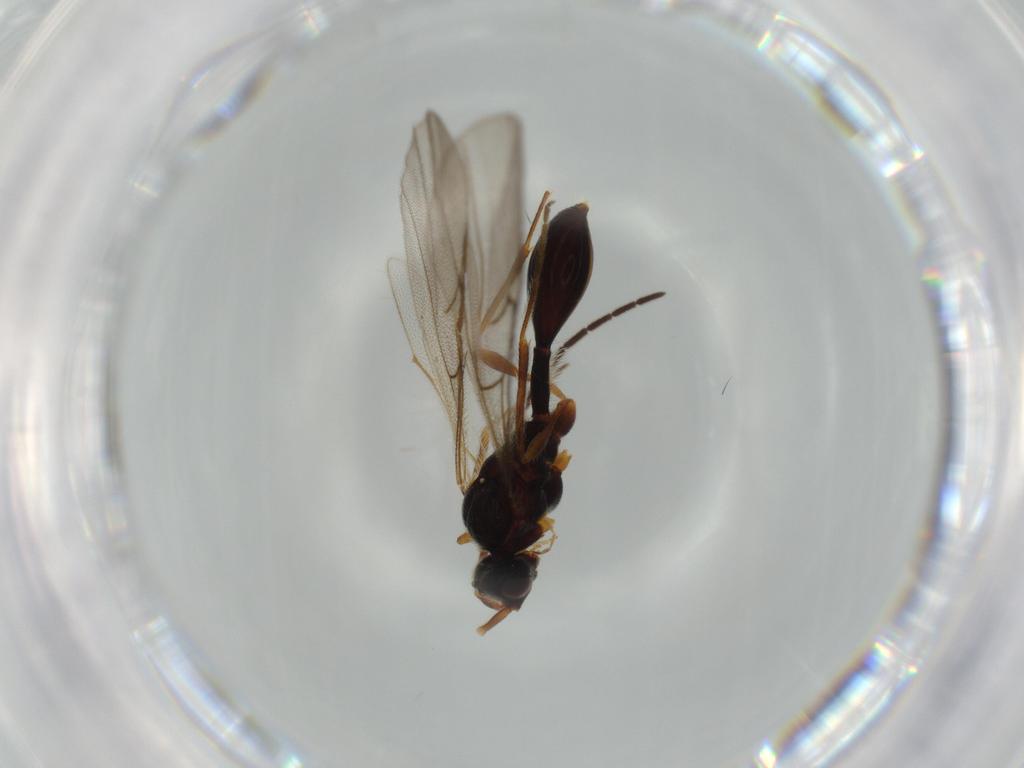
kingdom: Animalia
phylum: Arthropoda
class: Insecta
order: Hymenoptera
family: Diapriidae
